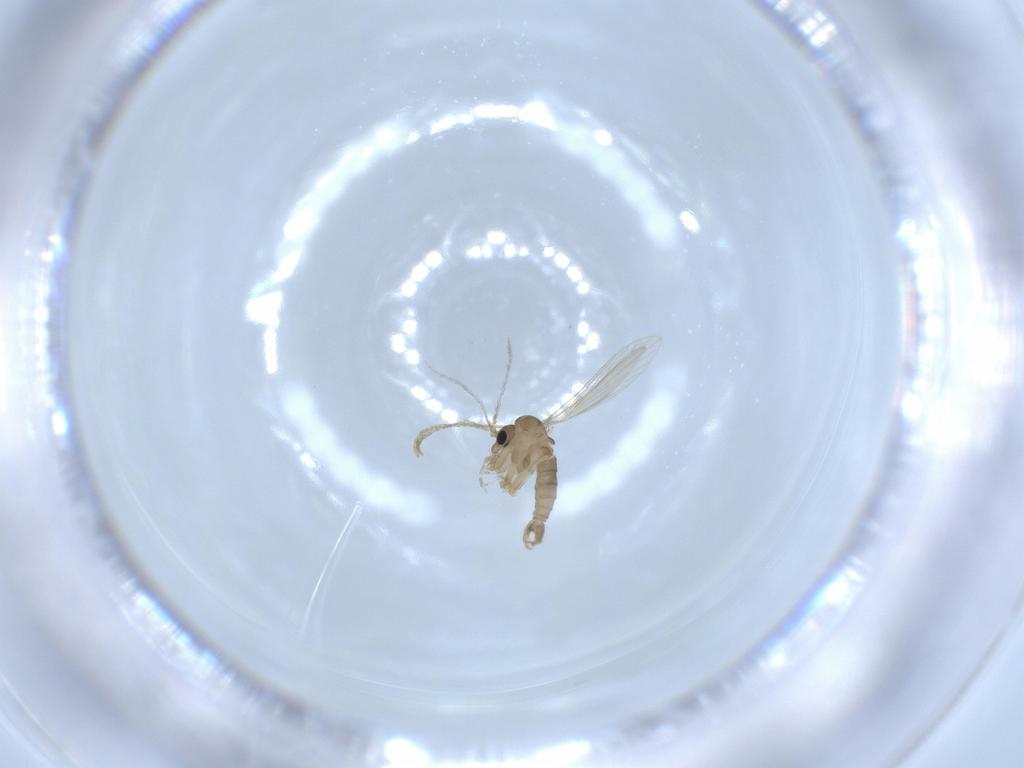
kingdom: Animalia
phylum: Arthropoda
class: Insecta
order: Diptera
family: Psychodidae
